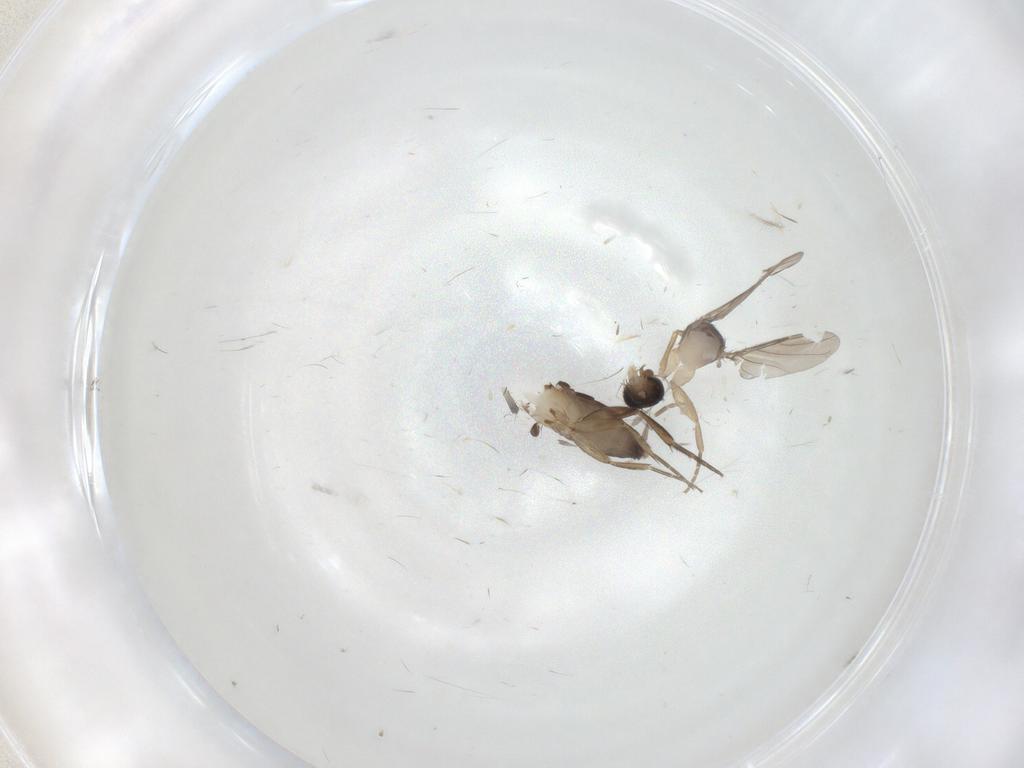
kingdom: Animalia
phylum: Arthropoda
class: Insecta
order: Diptera
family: Phoridae
